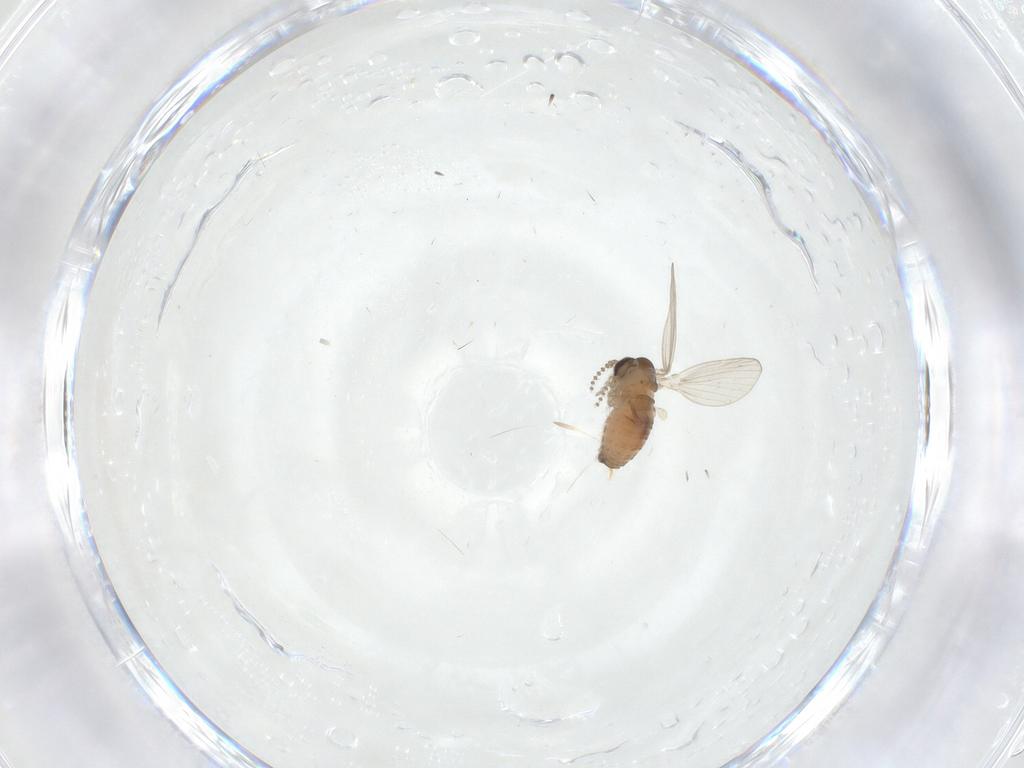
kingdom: Animalia
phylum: Arthropoda
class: Insecta
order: Diptera
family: Psychodidae
